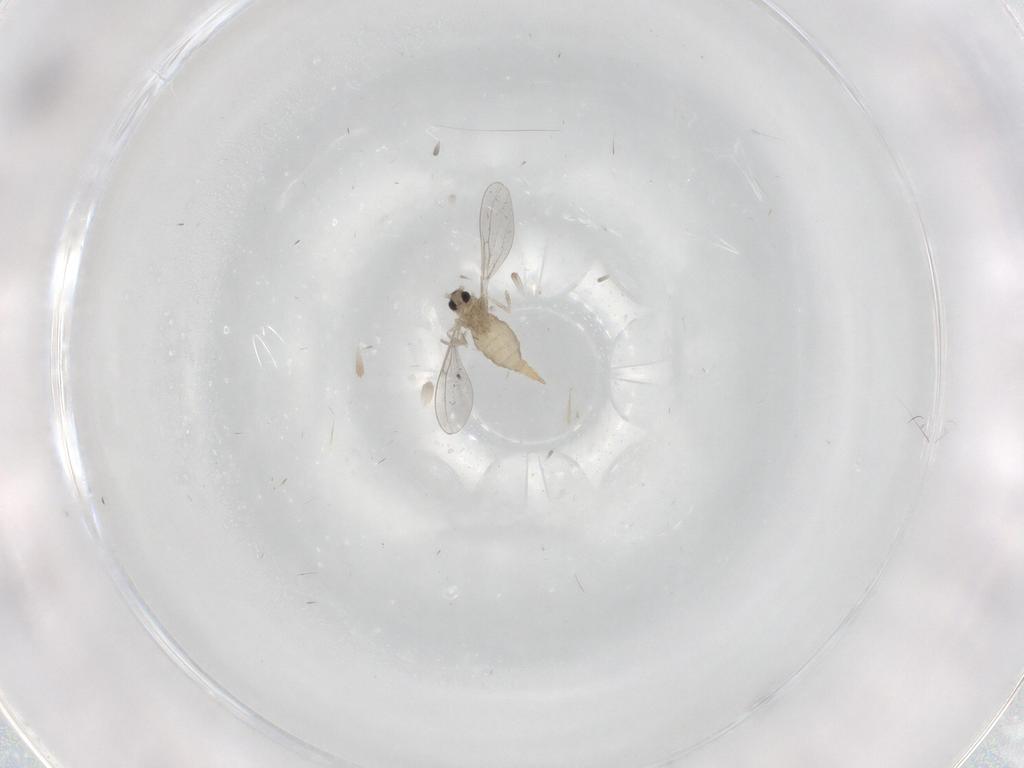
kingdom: Animalia
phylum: Arthropoda
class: Insecta
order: Diptera
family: Cecidomyiidae
